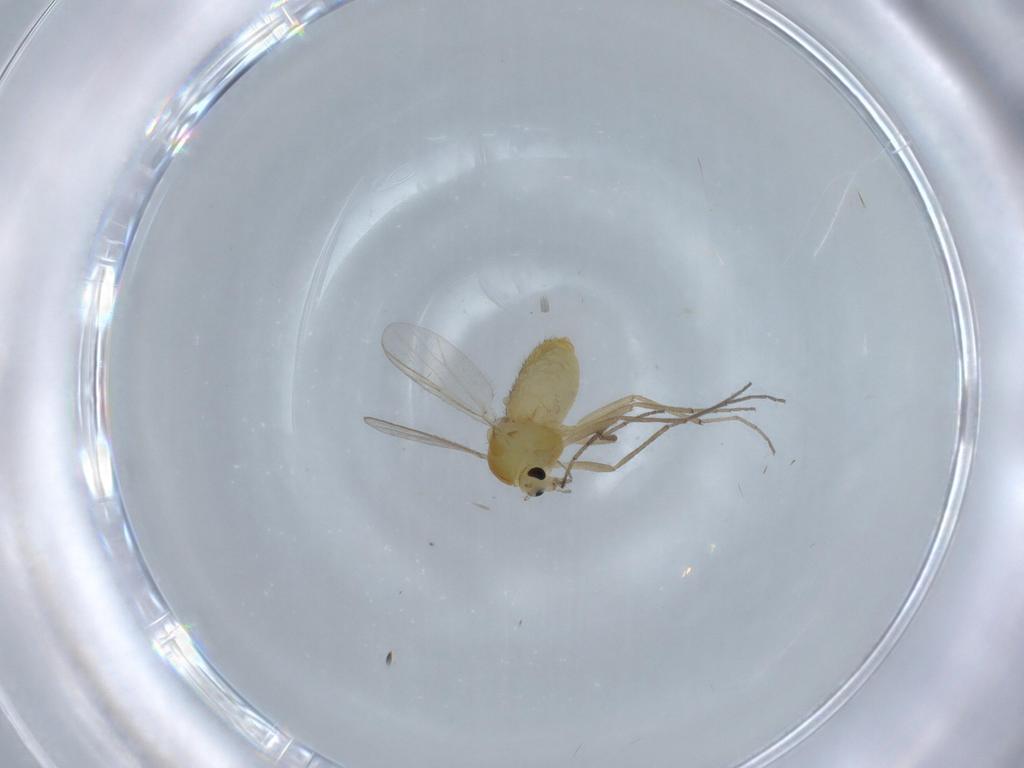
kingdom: Animalia
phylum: Arthropoda
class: Insecta
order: Diptera
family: Chironomidae
